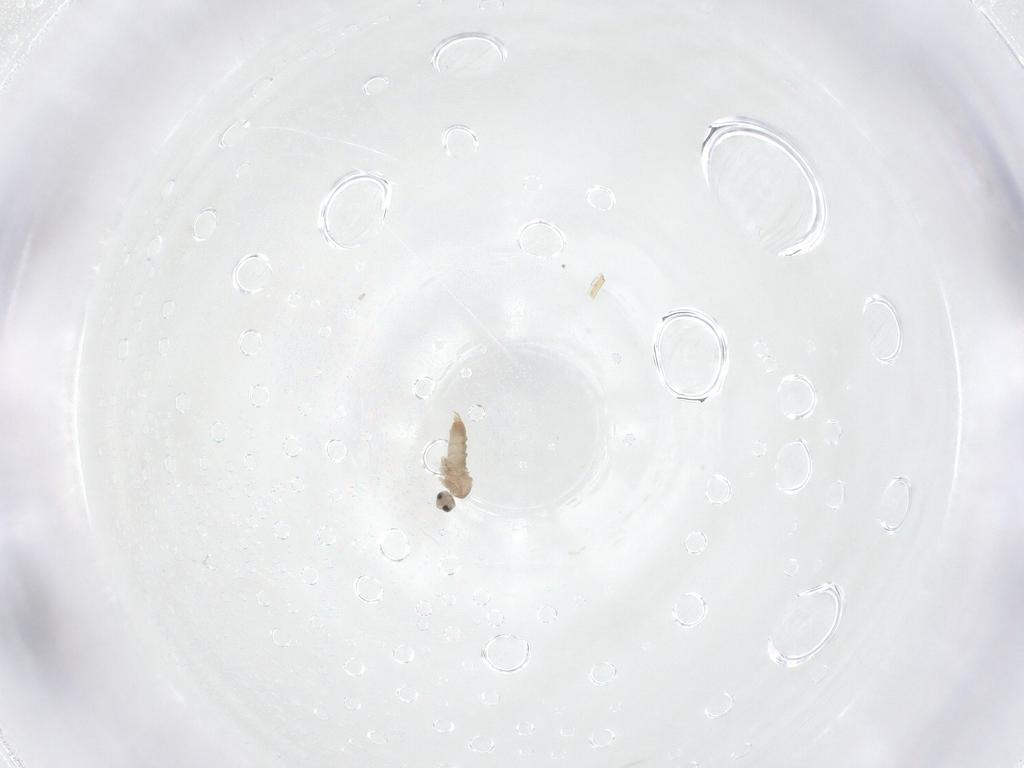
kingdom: Animalia
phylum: Arthropoda
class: Insecta
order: Diptera
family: Cecidomyiidae
